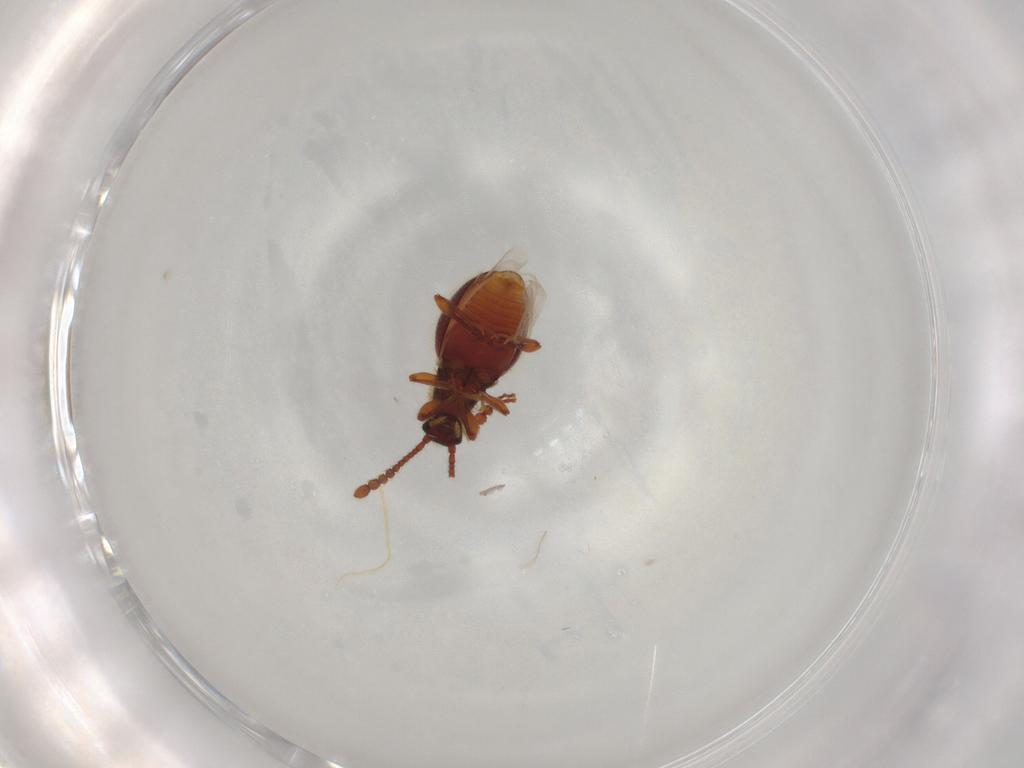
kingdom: Animalia
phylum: Arthropoda
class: Insecta
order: Coleoptera
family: Staphylinidae
